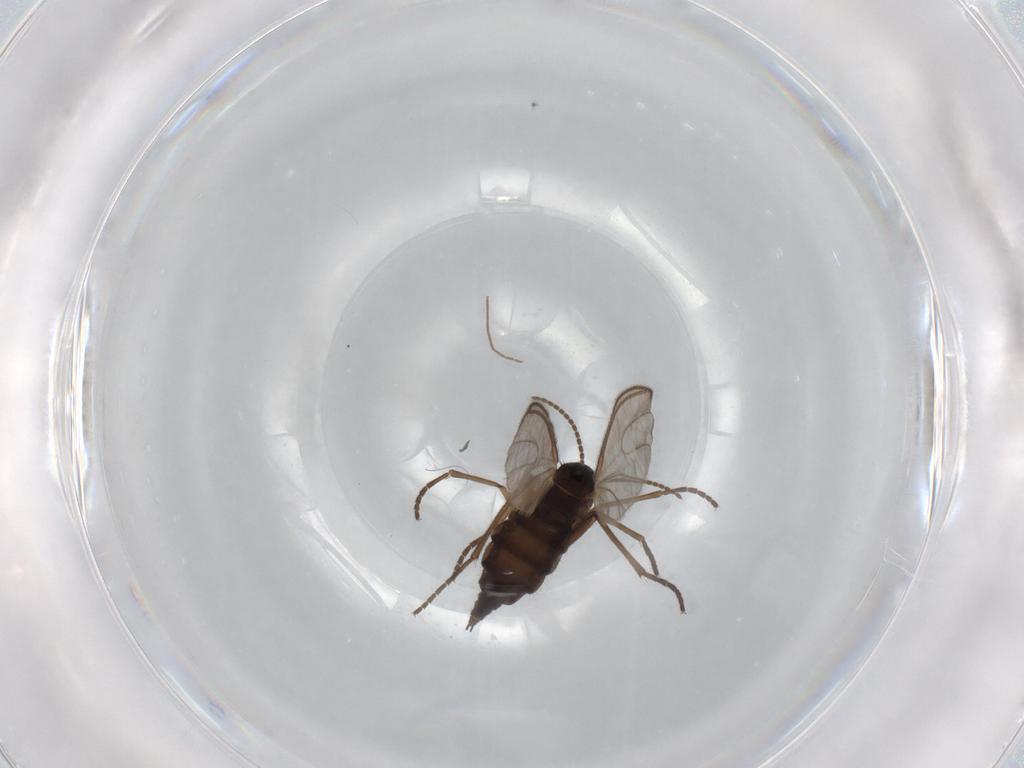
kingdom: Animalia
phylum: Arthropoda
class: Insecta
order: Diptera
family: Sciaridae
